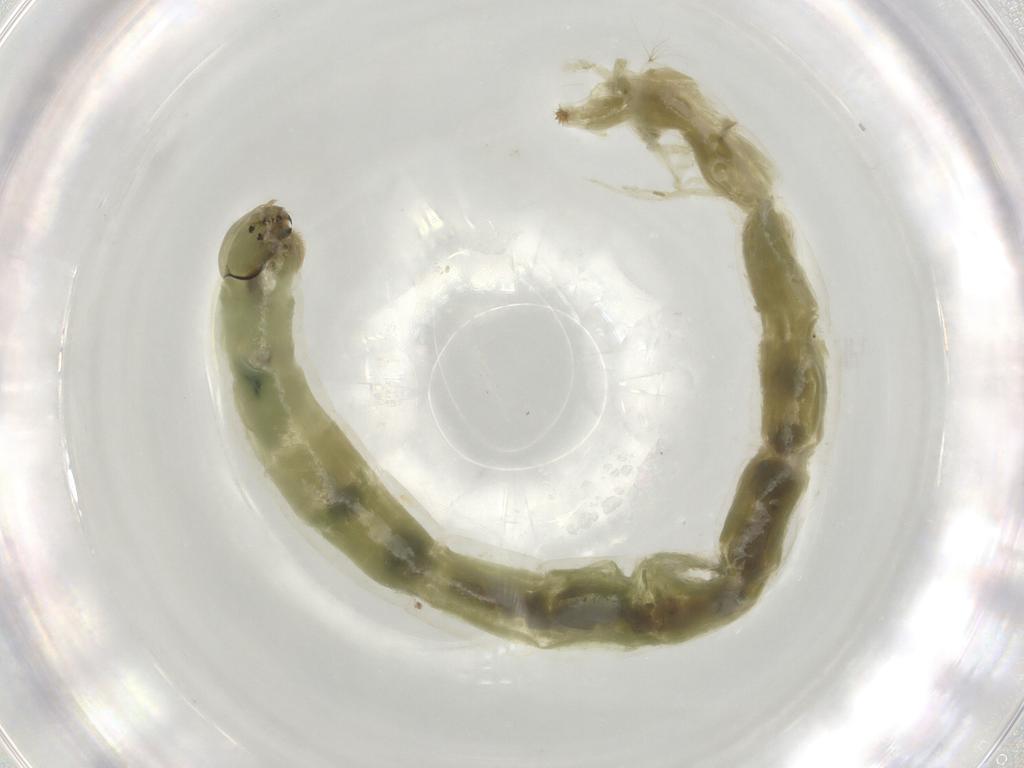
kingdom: Animalia
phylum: Arthropoda
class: Insecta
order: Diptera
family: Chironomidae
